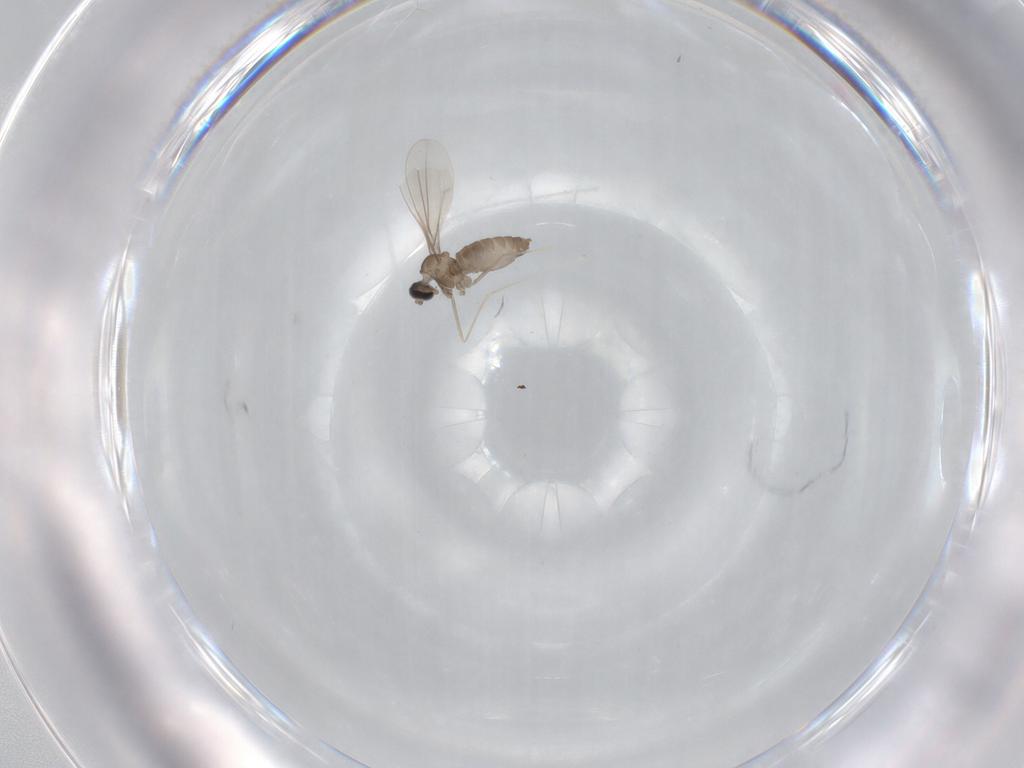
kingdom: Animalia
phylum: Arthropoda
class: Insecta
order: Diptera
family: Cecidomyiidae
